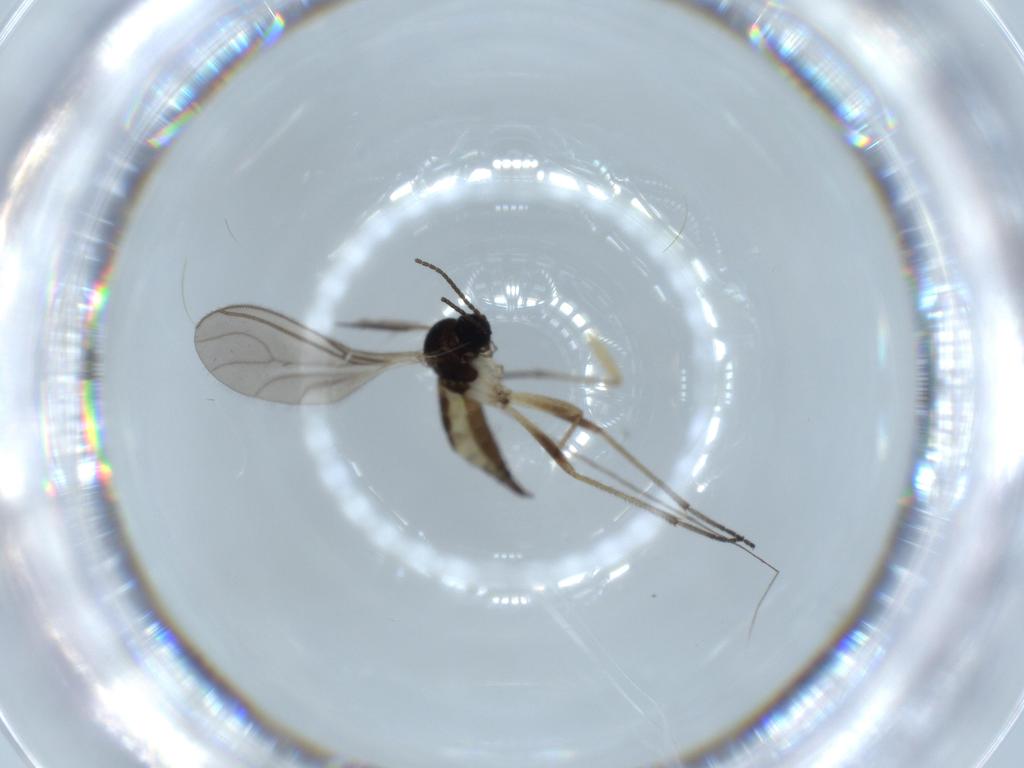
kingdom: Animalia
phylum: Arthropoda
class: Insecta
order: Diptera
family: Sciaridae
